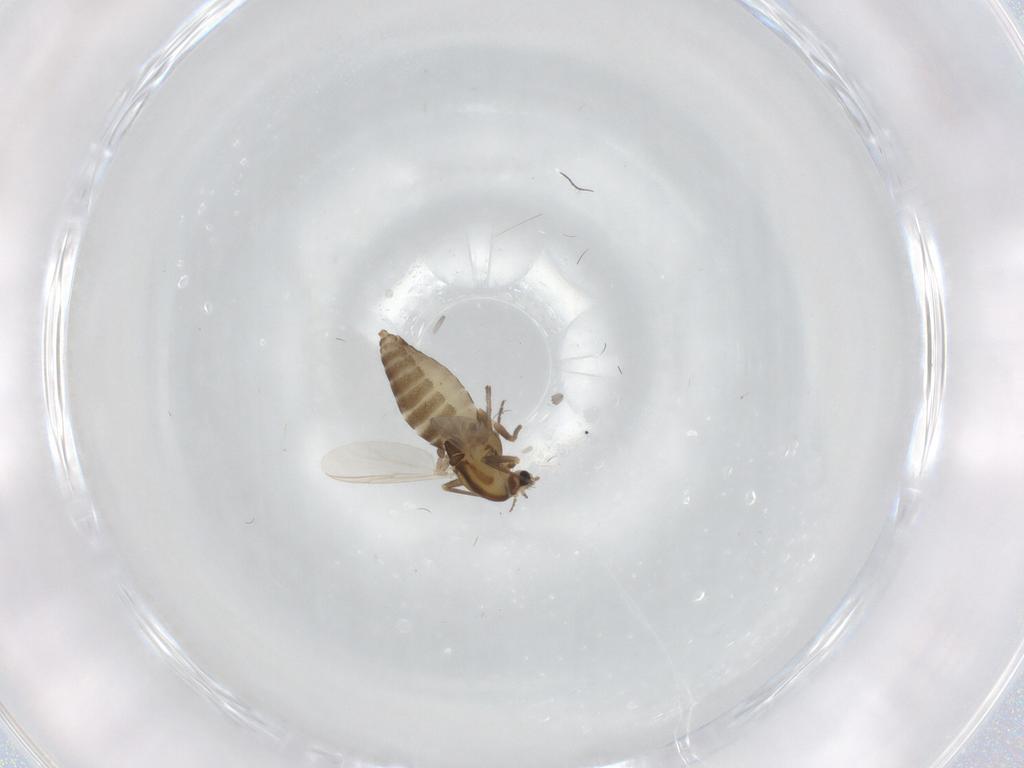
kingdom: Animalia
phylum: Arthropoda
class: Insecta
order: Diptera
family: Chironomidae
